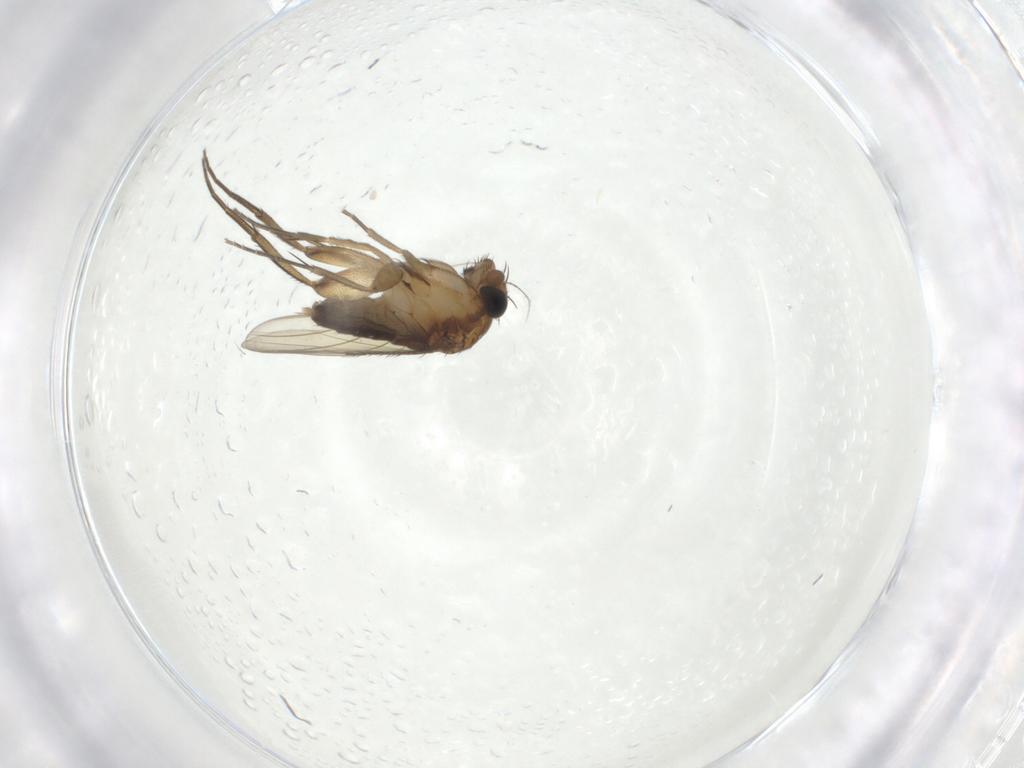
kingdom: Animalia
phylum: Arthropoda
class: Insecta
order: Diptera
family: Phoridae
